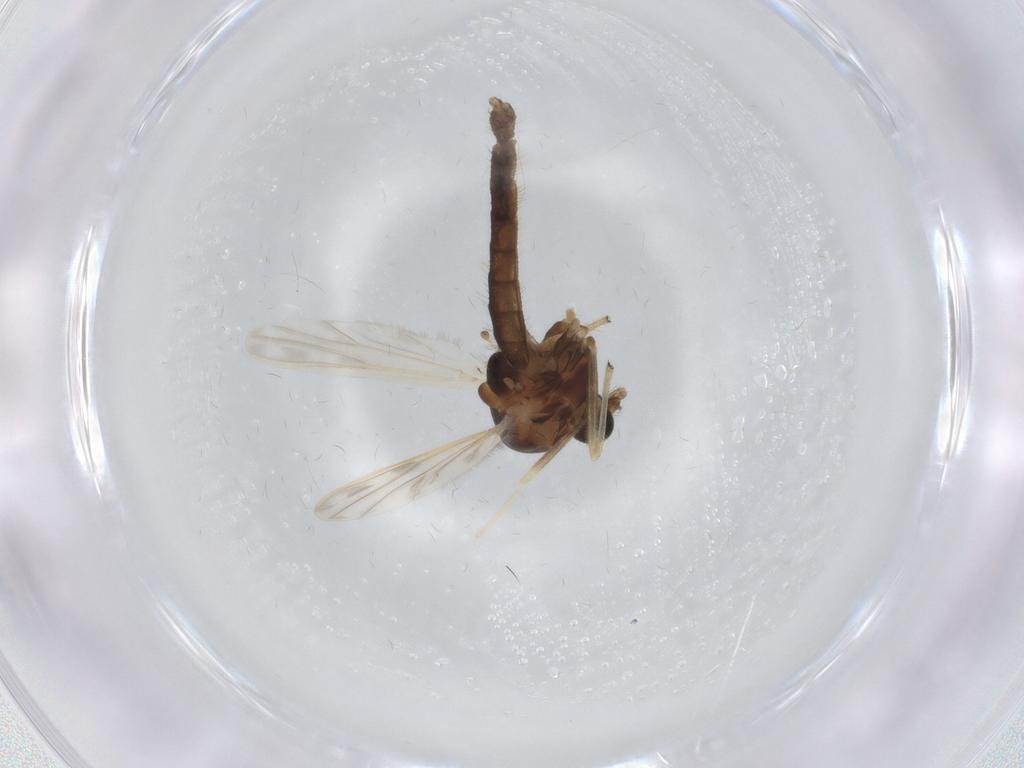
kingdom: Animalia
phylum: Arthropoda
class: Insecta
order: Diptera
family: Chironomidae
